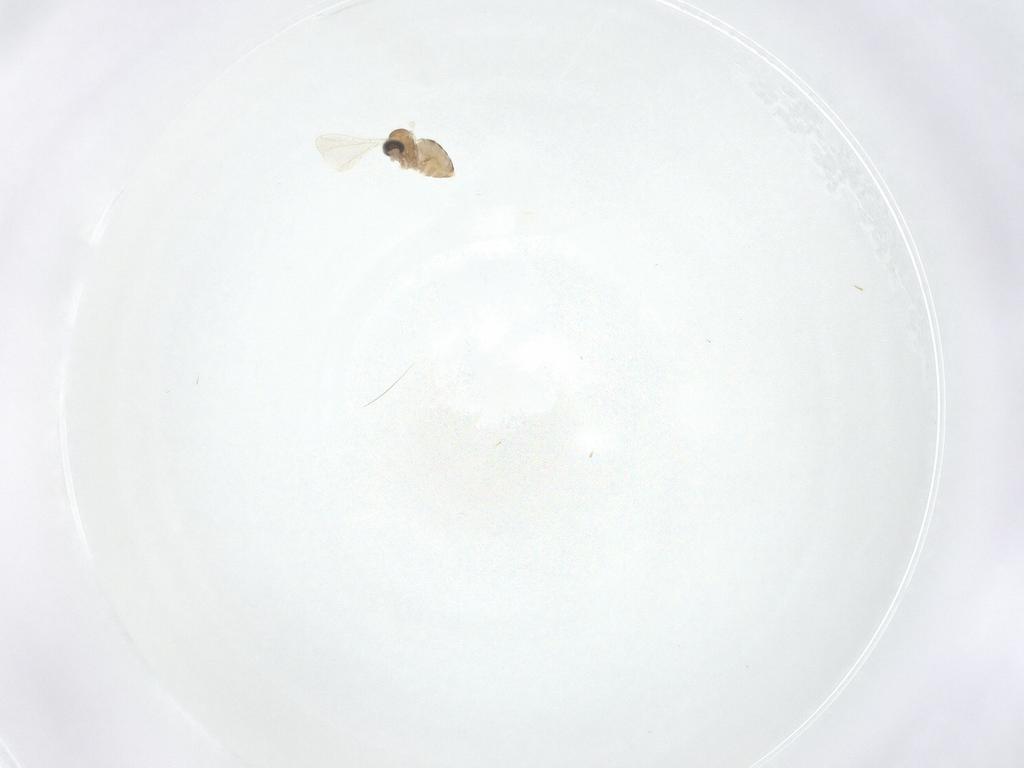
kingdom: Animalia
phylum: Arthropoda
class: Insecta
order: Diptera
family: Cecidomyiidae
